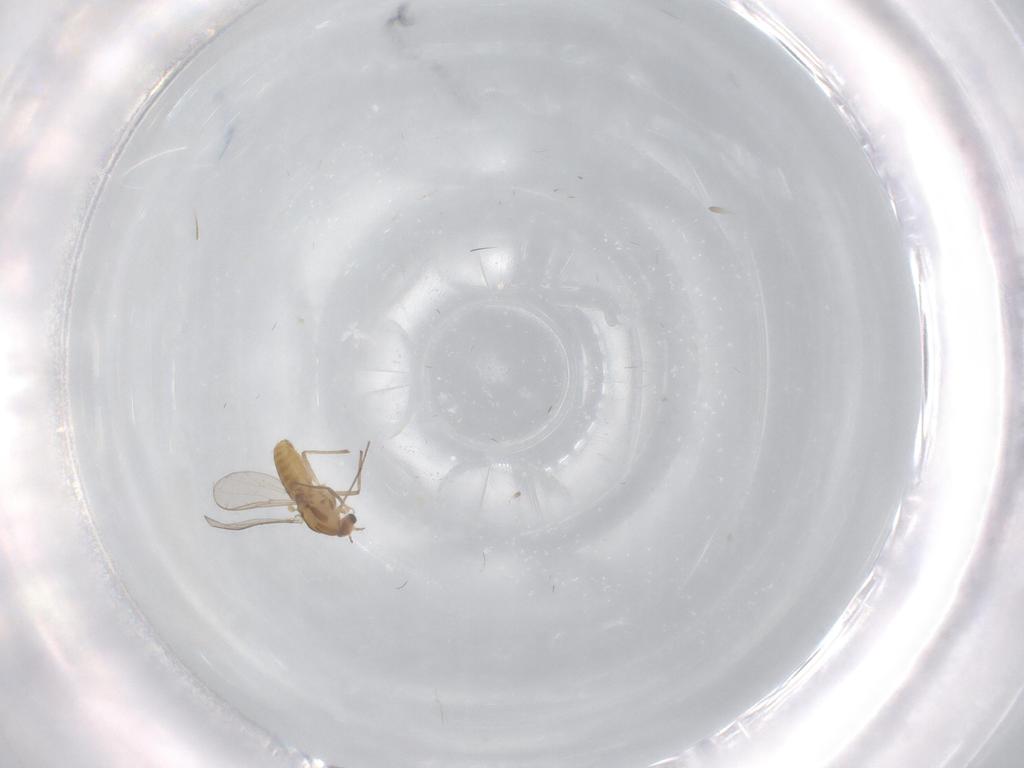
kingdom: Animalia
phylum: Arthropoda
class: Insecta
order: Diptera
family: Chironomidae
